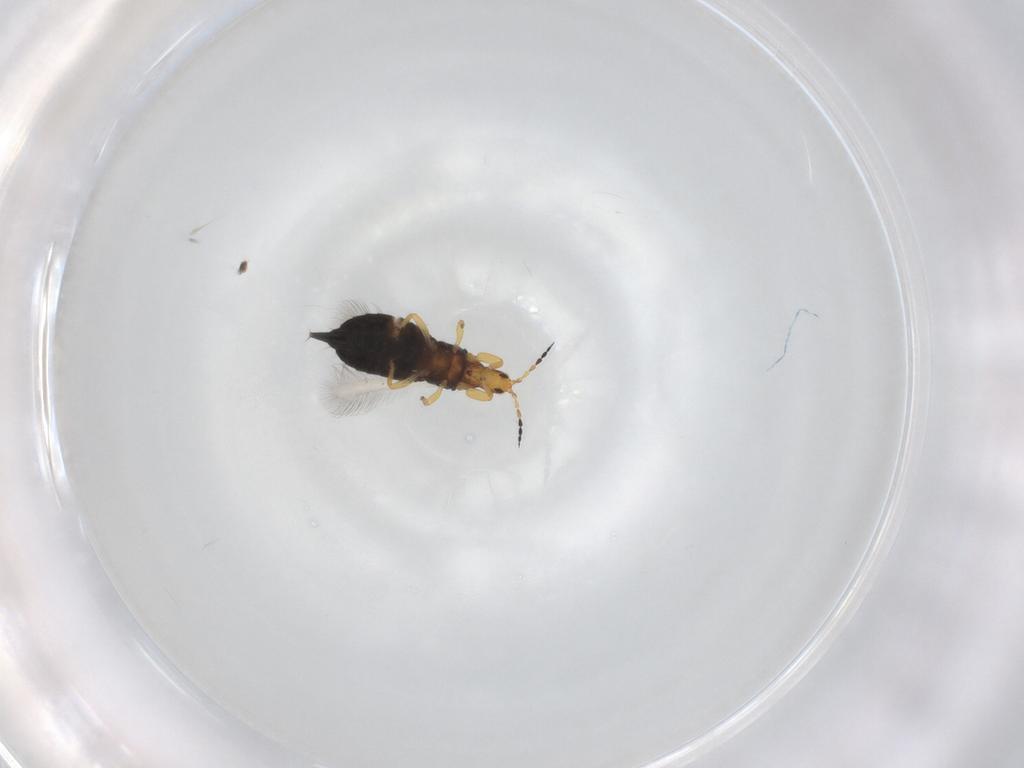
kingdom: Animalia
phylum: Arthropoda
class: Insecta
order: Thysanoptera
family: Phlaeothripidae
